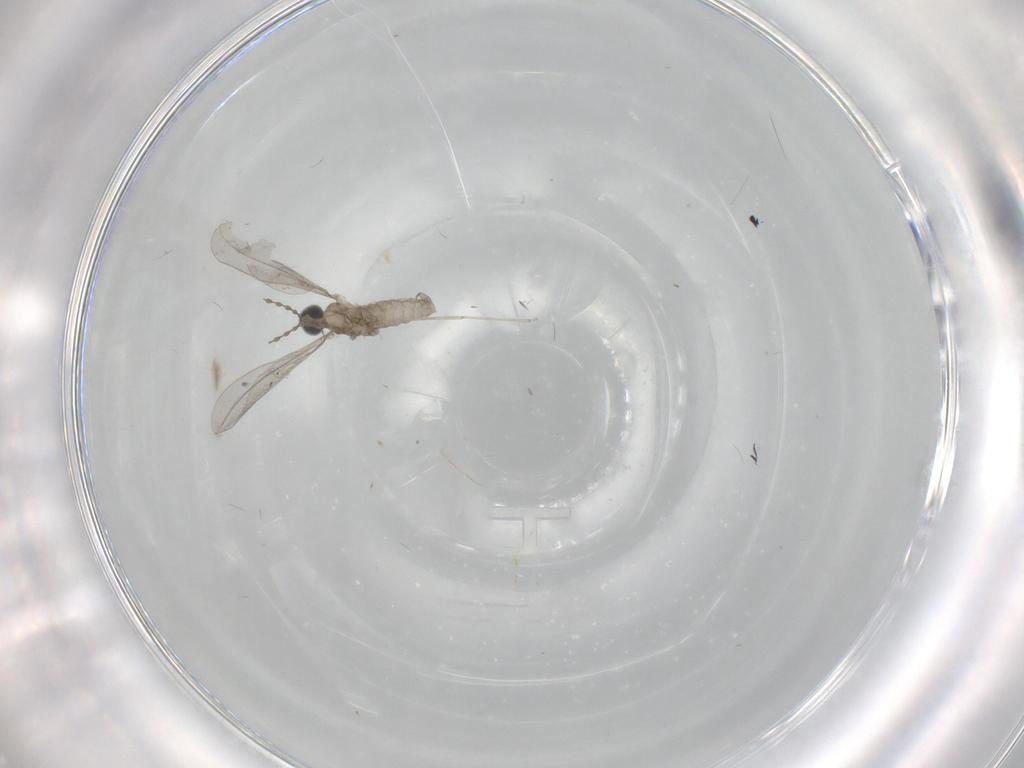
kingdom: Animalia
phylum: Arthropoda
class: Insecta
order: Diptera
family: Cecidomyiidae
